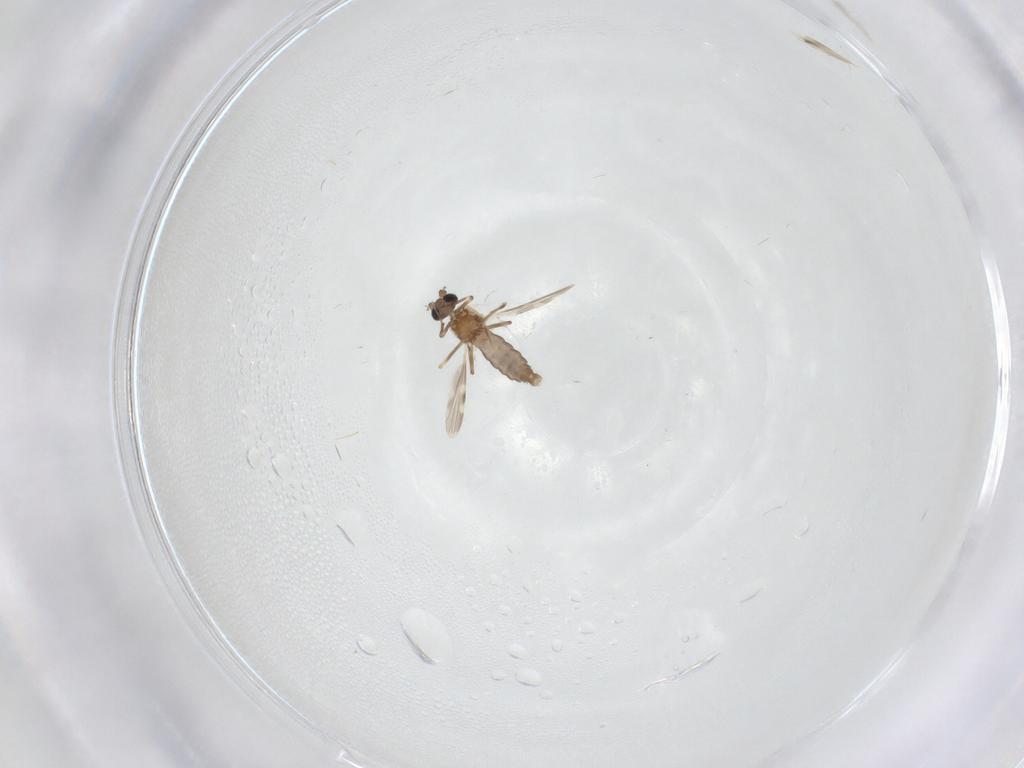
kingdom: Animalia
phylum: Arthropoda
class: Insecta
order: Diptera
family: Ceratopogonidae
